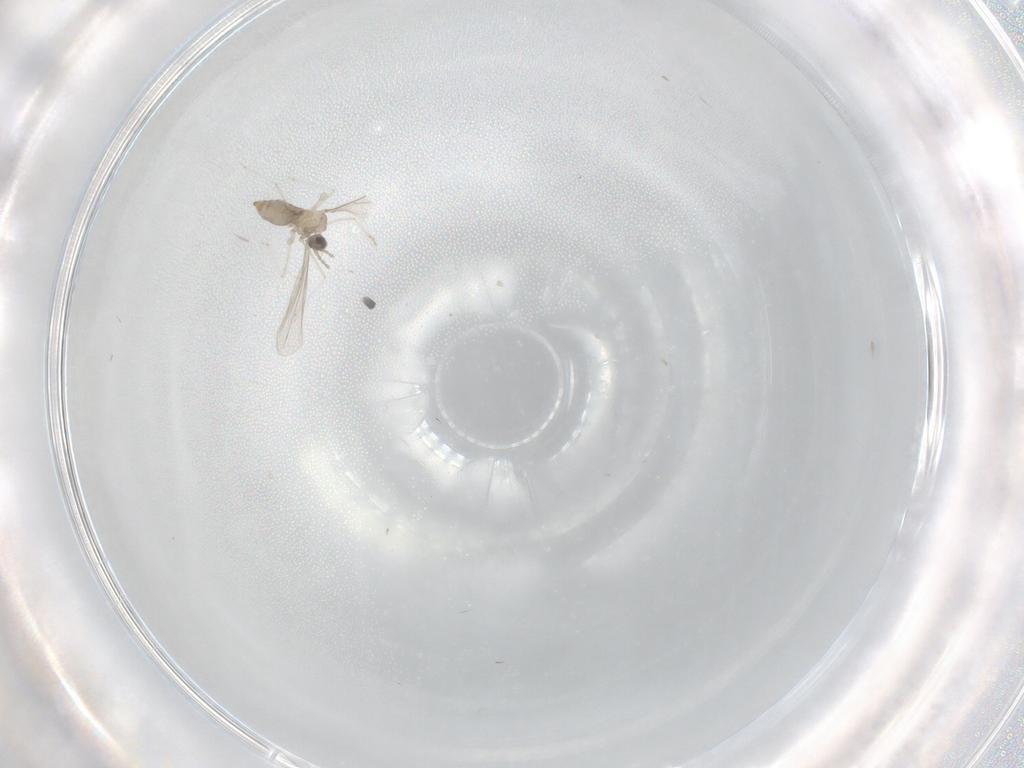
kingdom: Animalia
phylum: Arthropoda
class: Insecta
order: Diptera
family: Cecidomyiidae
